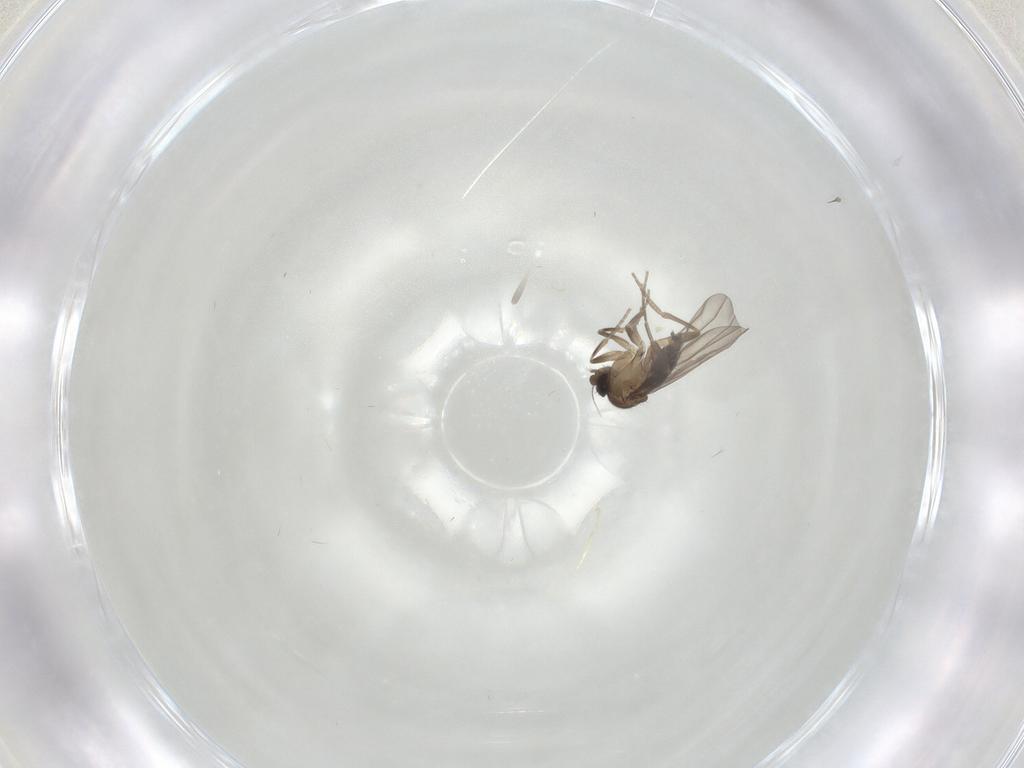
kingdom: Animalia
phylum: Arthropoda
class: Insecta
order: Diptera
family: Phoridae
